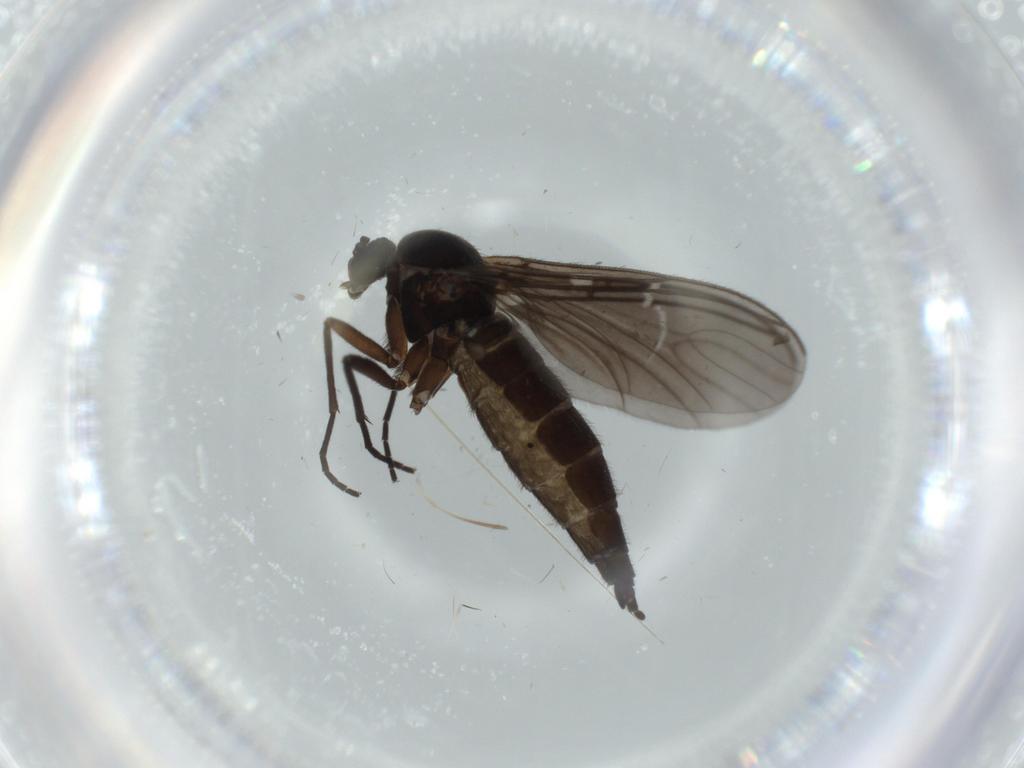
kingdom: Animalia
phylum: Arthropoda
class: Insecta
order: Diptera
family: Sciaridae
